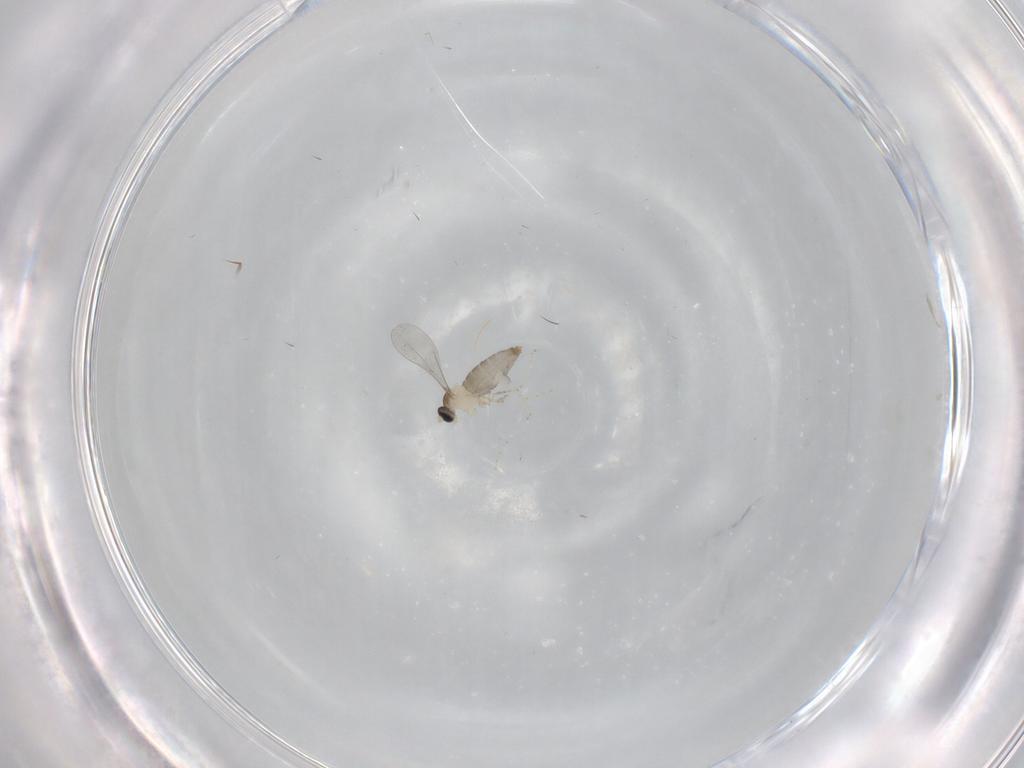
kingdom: Animalia
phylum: Arthropoda
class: Insecta
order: Diptera
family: Cecidomyiidae
